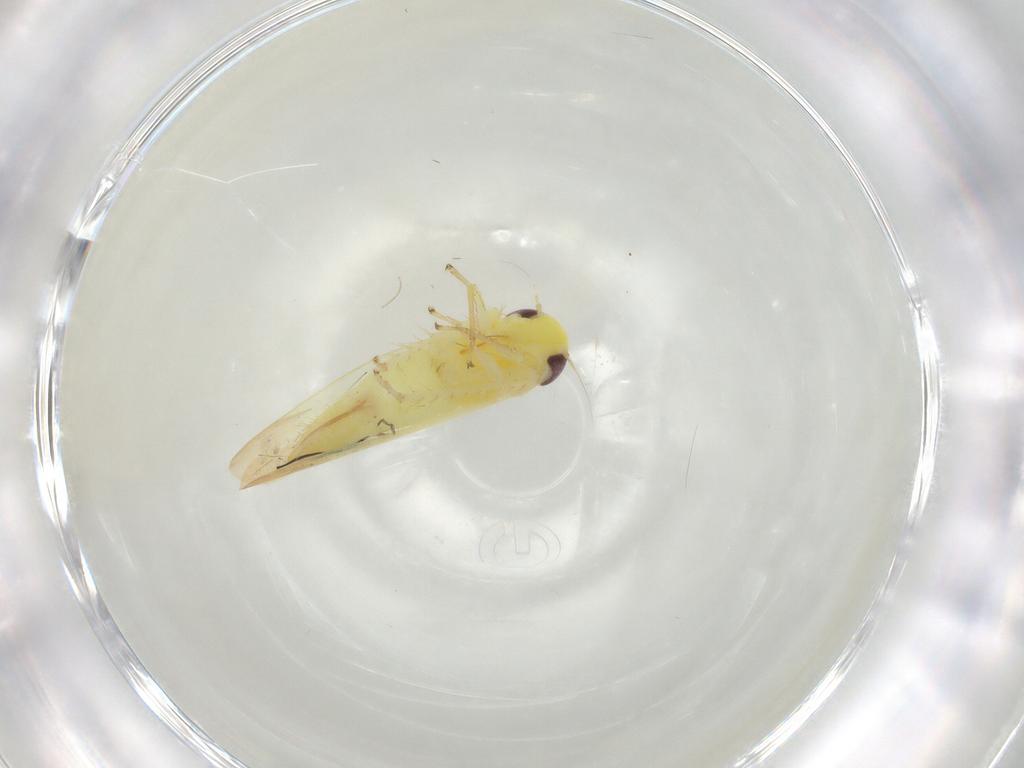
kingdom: Animalia
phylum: Arthropoda
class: Insecta
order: Hemiptera
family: Cicadellidae
